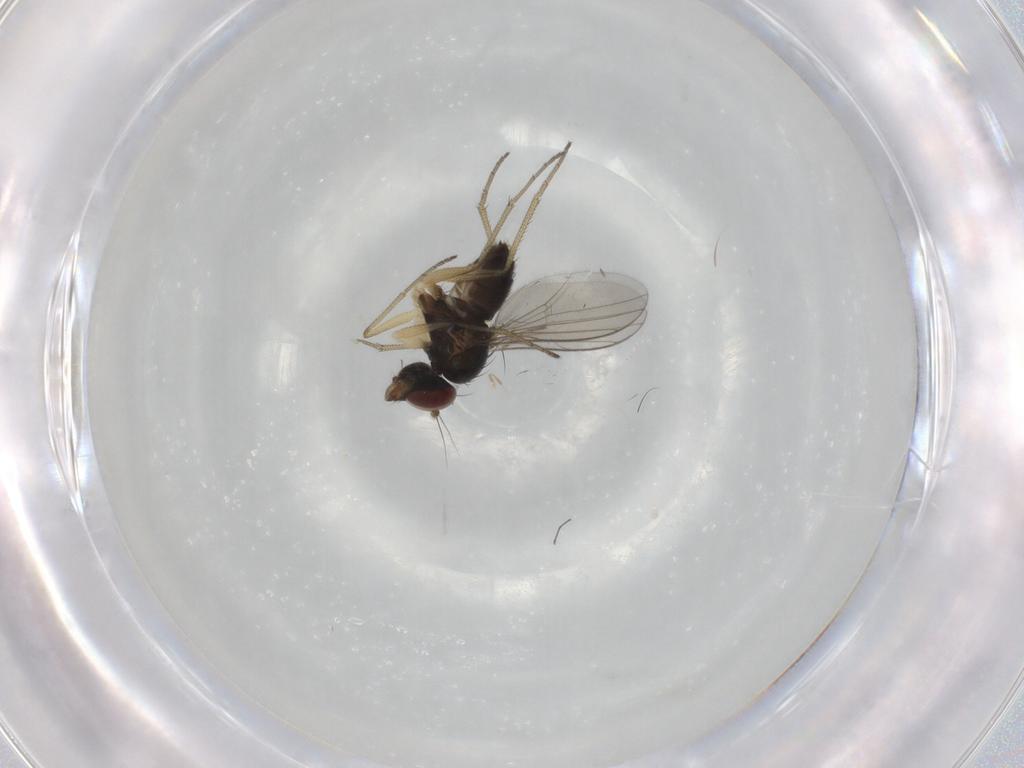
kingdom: Animalia
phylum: Arthropoda
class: Insecta
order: Diptera
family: Dolichopodidae
